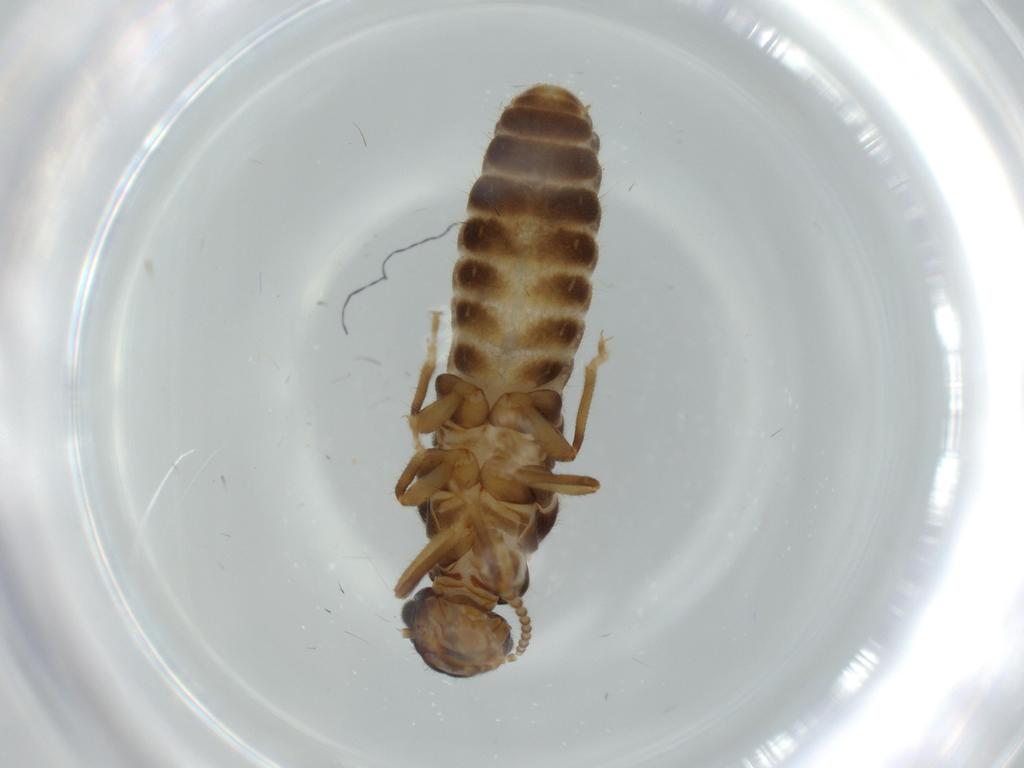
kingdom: Animalia
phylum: Arthropoda
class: Insecta
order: Blattodea
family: Termitidae
